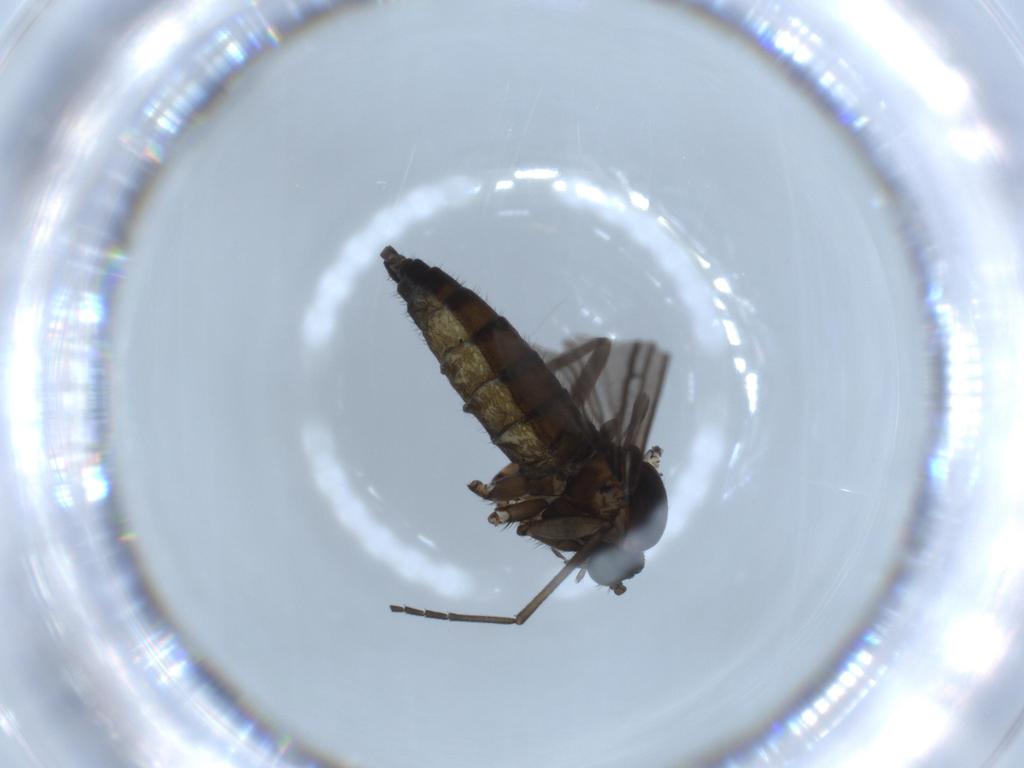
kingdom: Animalia
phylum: Arthropoda
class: Insecta
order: Diptera
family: Sciaridae
